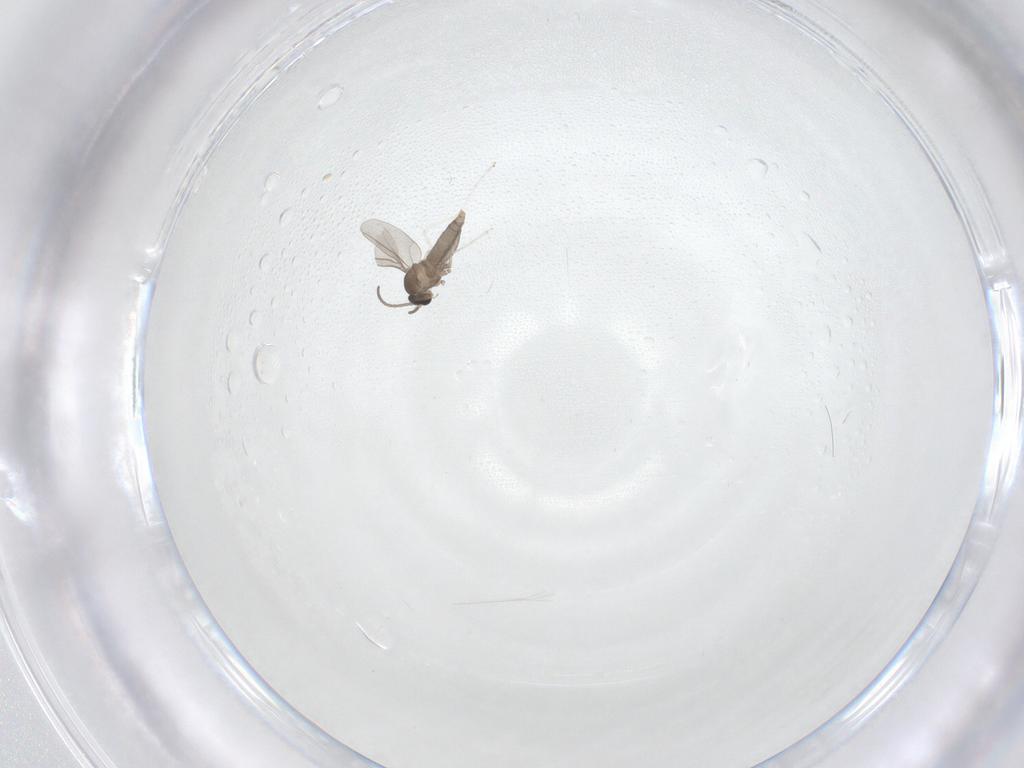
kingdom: Animalia
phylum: Arthropoda
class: Insecta
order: Diptera
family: Cecidomyiidae
